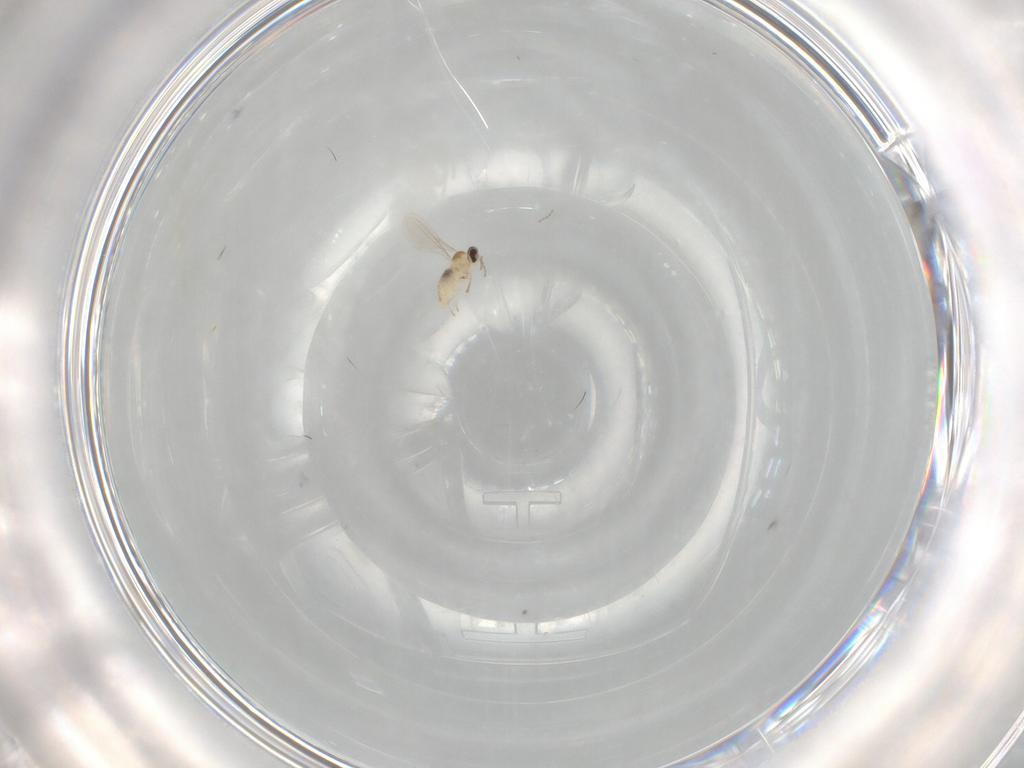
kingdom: Animalia
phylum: Arthropoda
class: Insecta
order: Diptera
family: Cecidomyiidae
